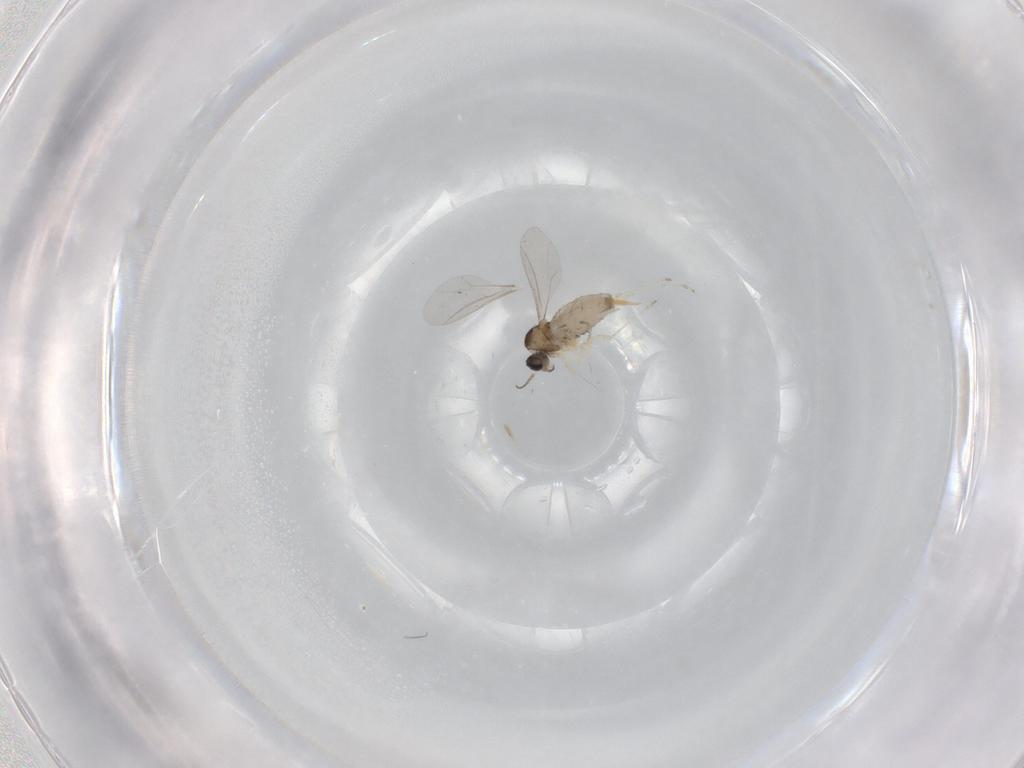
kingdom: Animalia
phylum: Arthropoda
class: Insecta
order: Diptera
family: Cecidomyiidae
